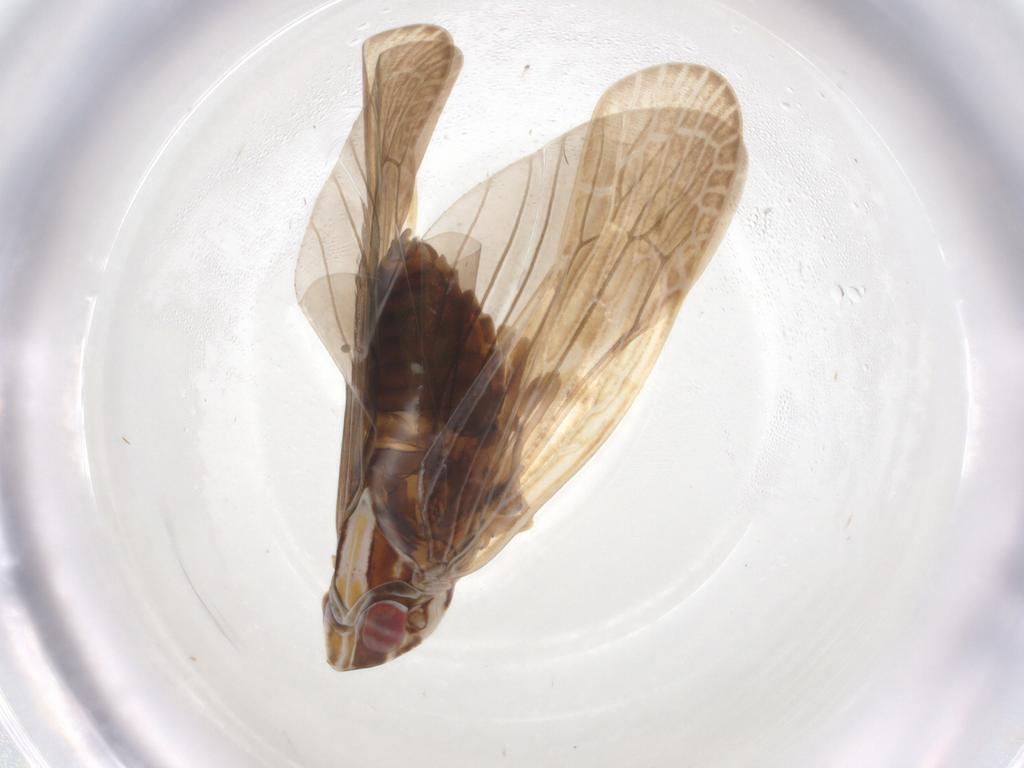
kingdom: Animalia
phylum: Arthropoda
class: Insecta
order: Hemiptera
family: Achilidae
